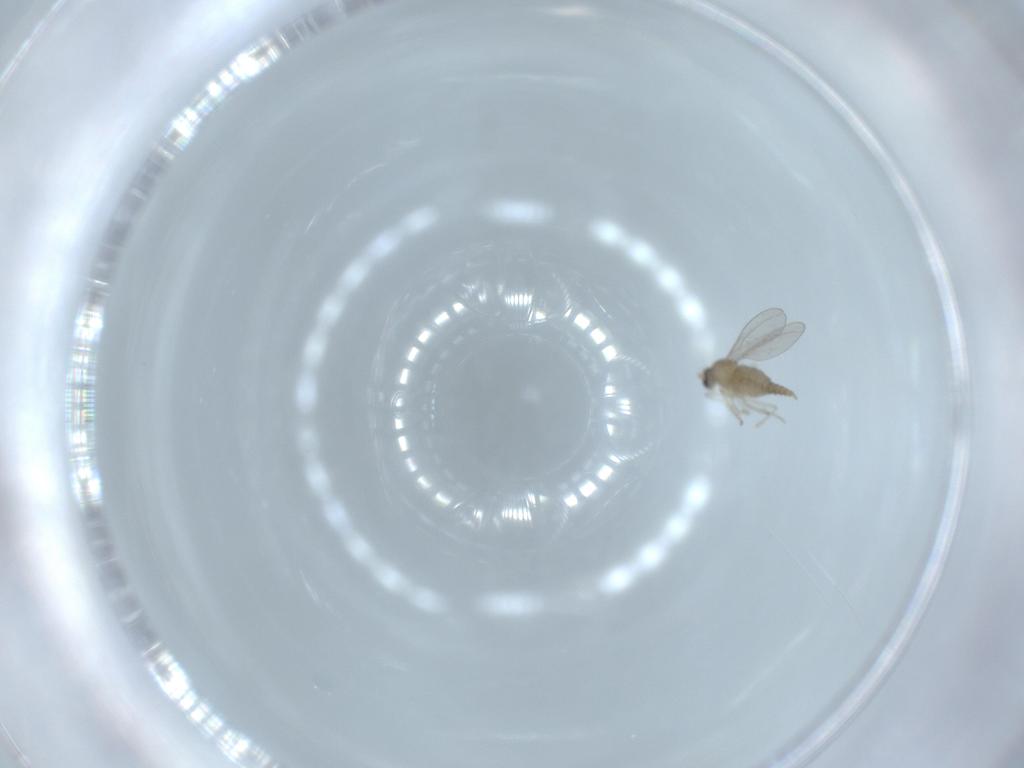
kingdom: Animalia
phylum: Arthropoda
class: Insecta
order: Diptera
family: Cecidomyiidae
